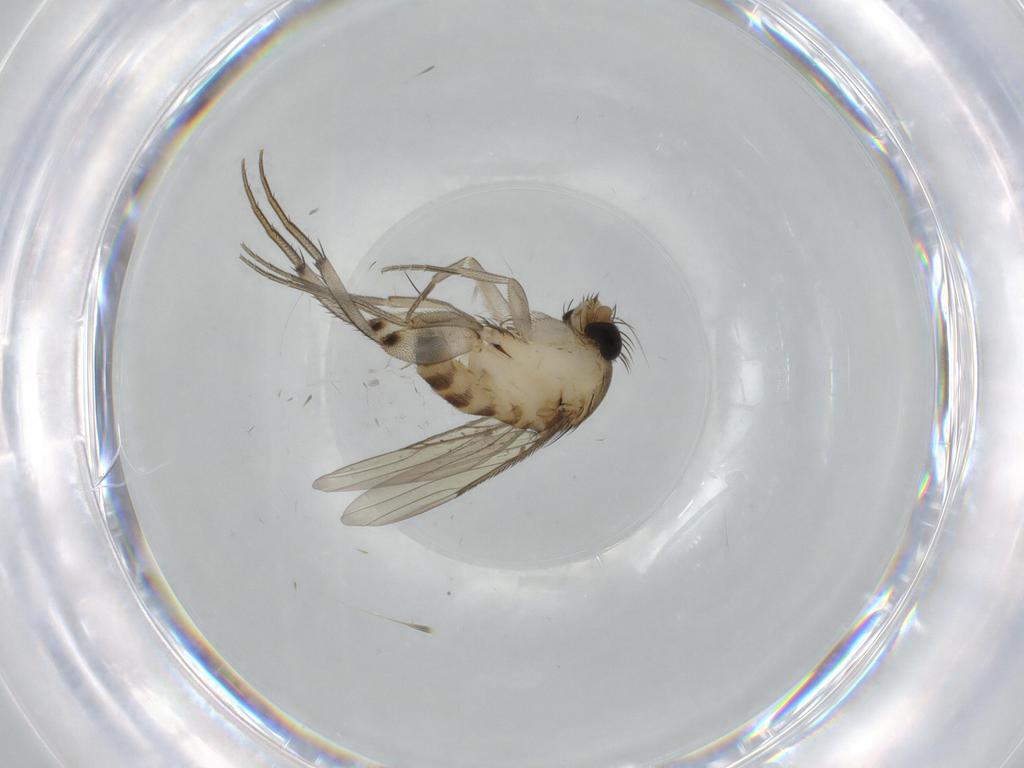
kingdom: Animalia
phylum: Arthropoda
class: Insecta
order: Diptera
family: Phoridae
